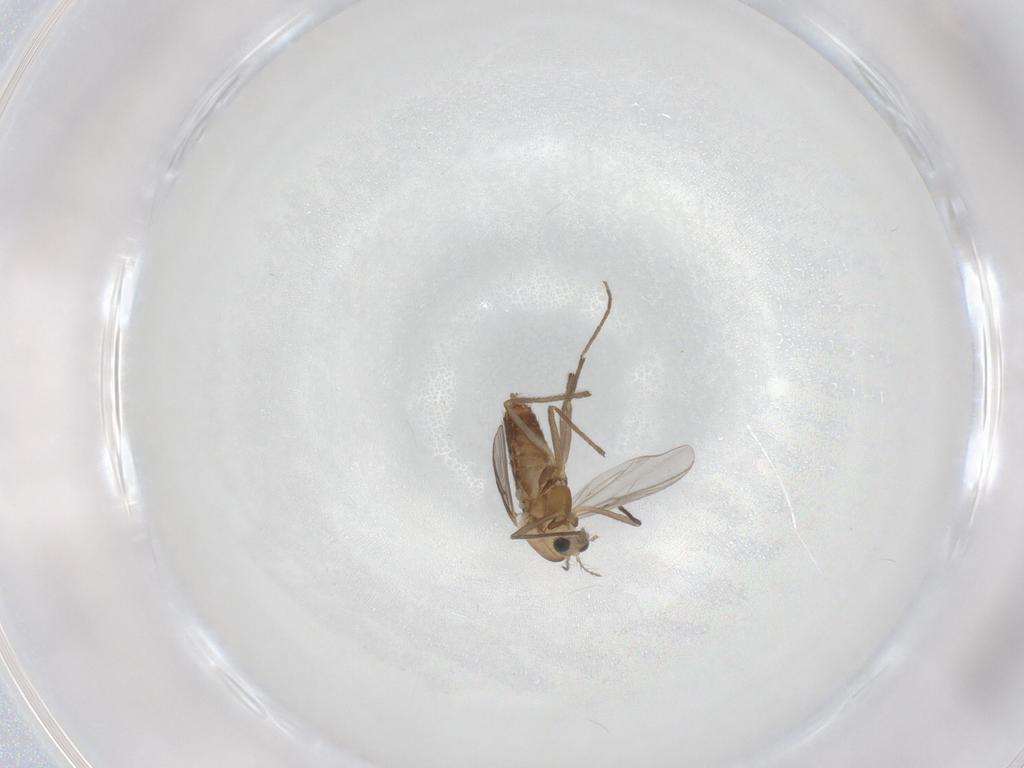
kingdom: Animalia
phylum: Arthropoda
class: Insecta
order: Diptera
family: Chironomidae
